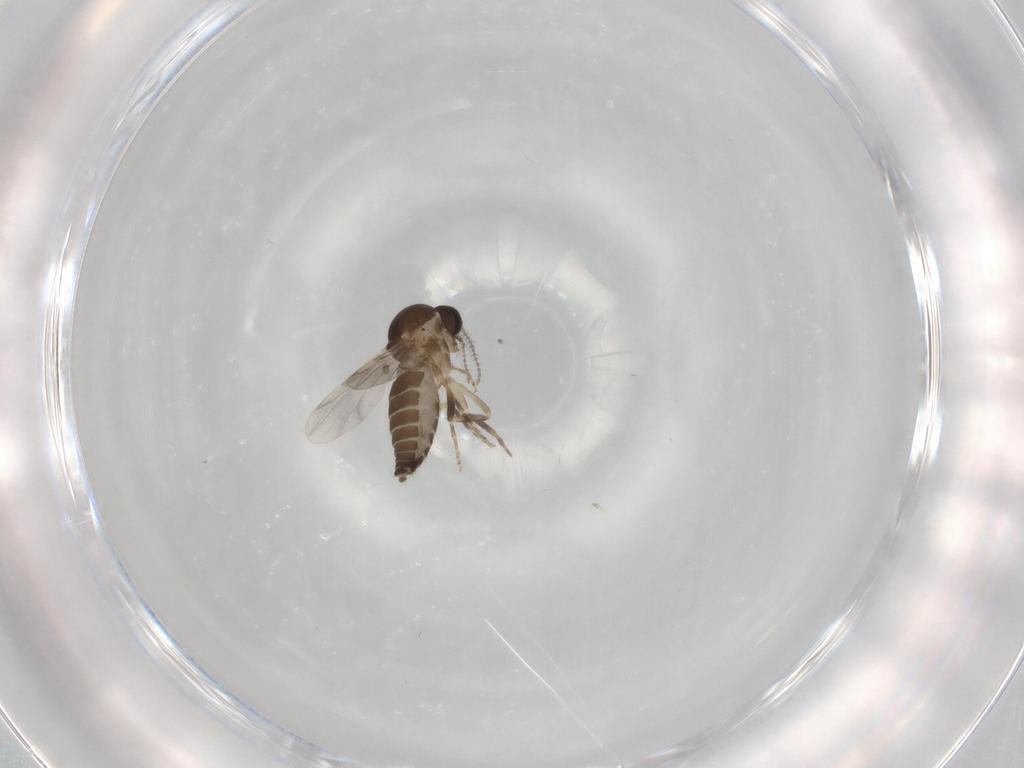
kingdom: Animalia
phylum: Arthropoda
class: Insecta
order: Diptera
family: Ceratopogonidae
